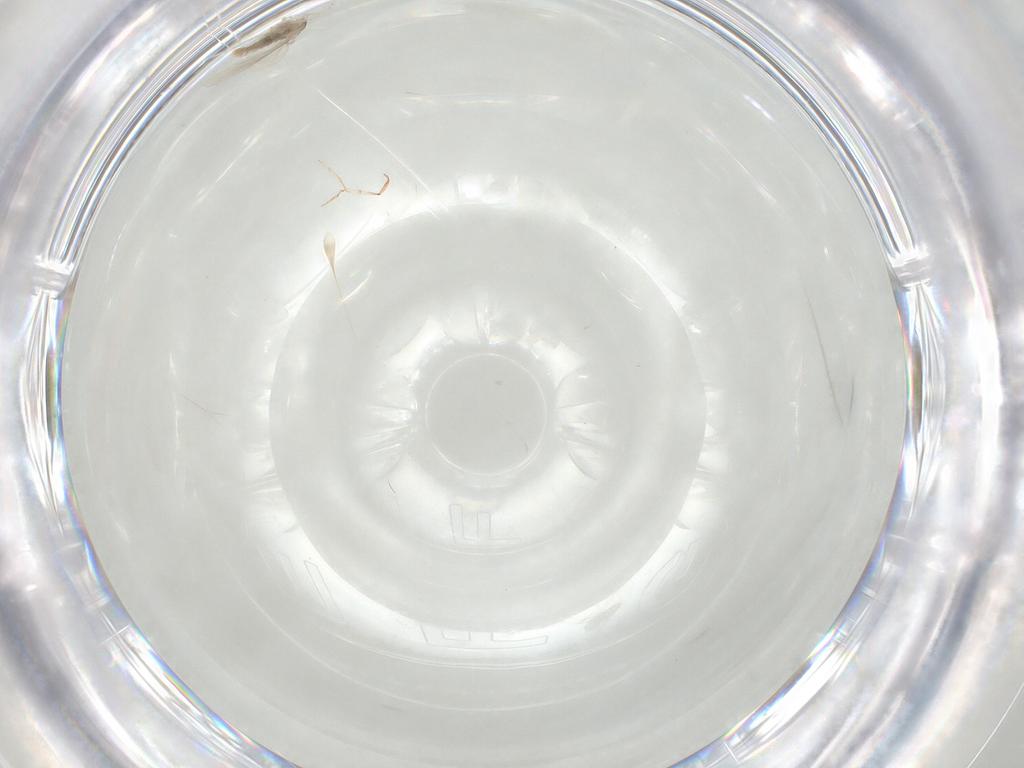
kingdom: Animalia
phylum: Arthropoda
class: Insecta
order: Diptera
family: Cecidomyiidae
